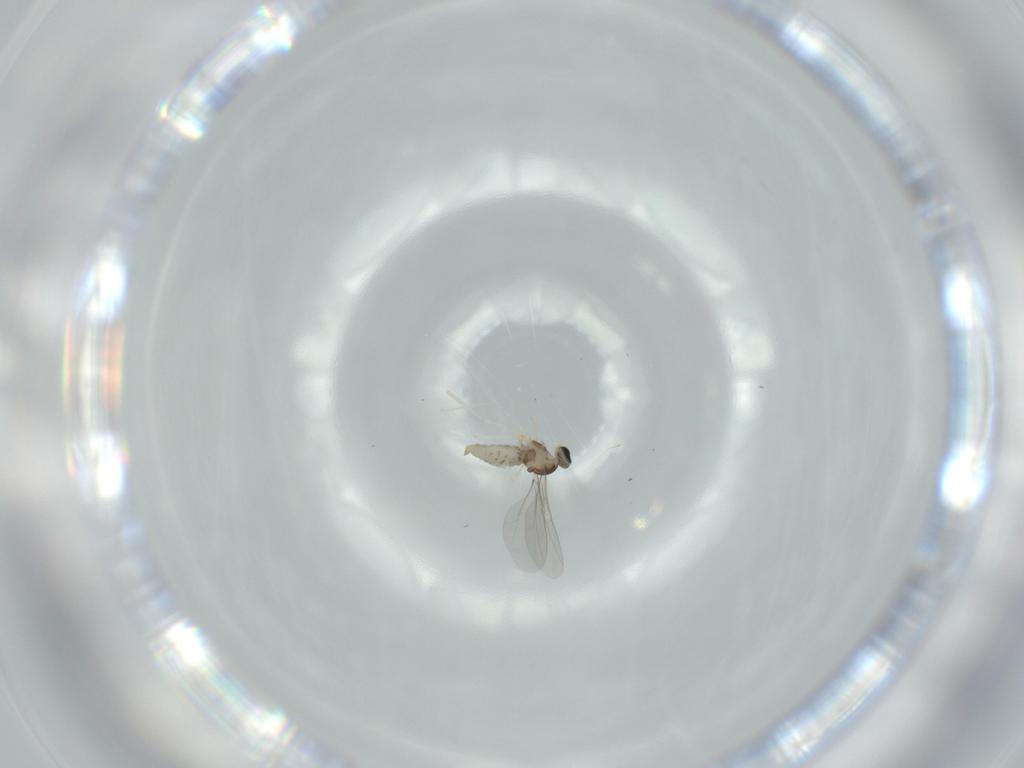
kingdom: Animalia
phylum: Arthropoda
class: Insecta
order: Diptera
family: Cecidomyiidae
